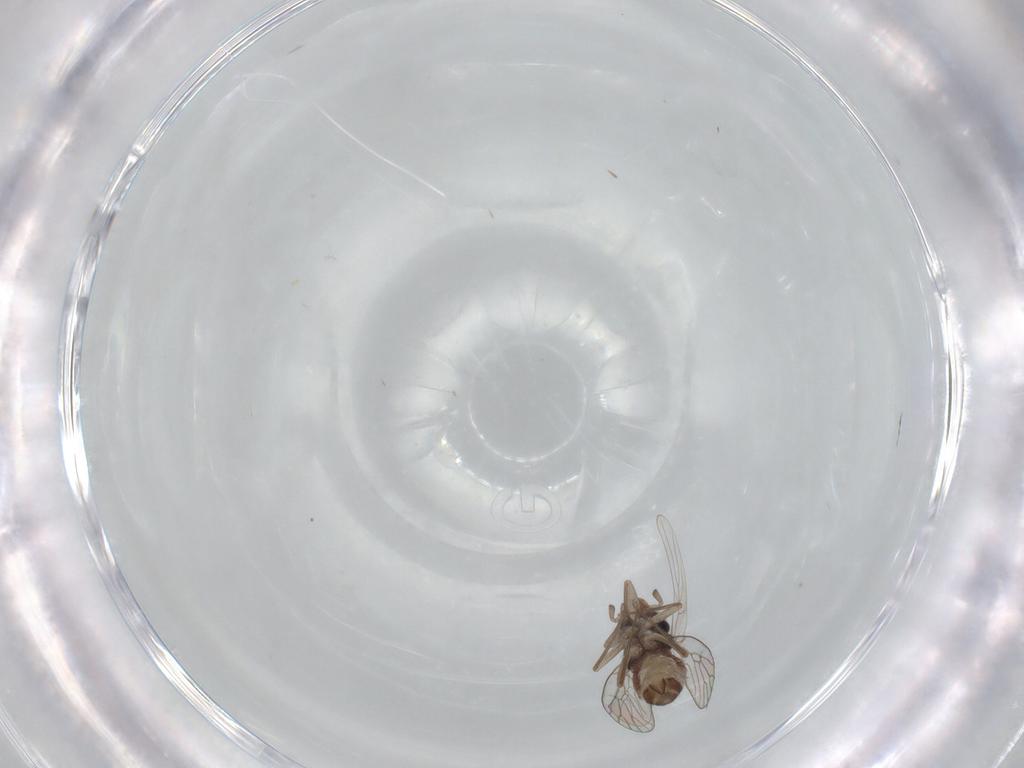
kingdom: Animalia
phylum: Arthropoda
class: Insecta
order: Psocodea
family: Psoquillidae
